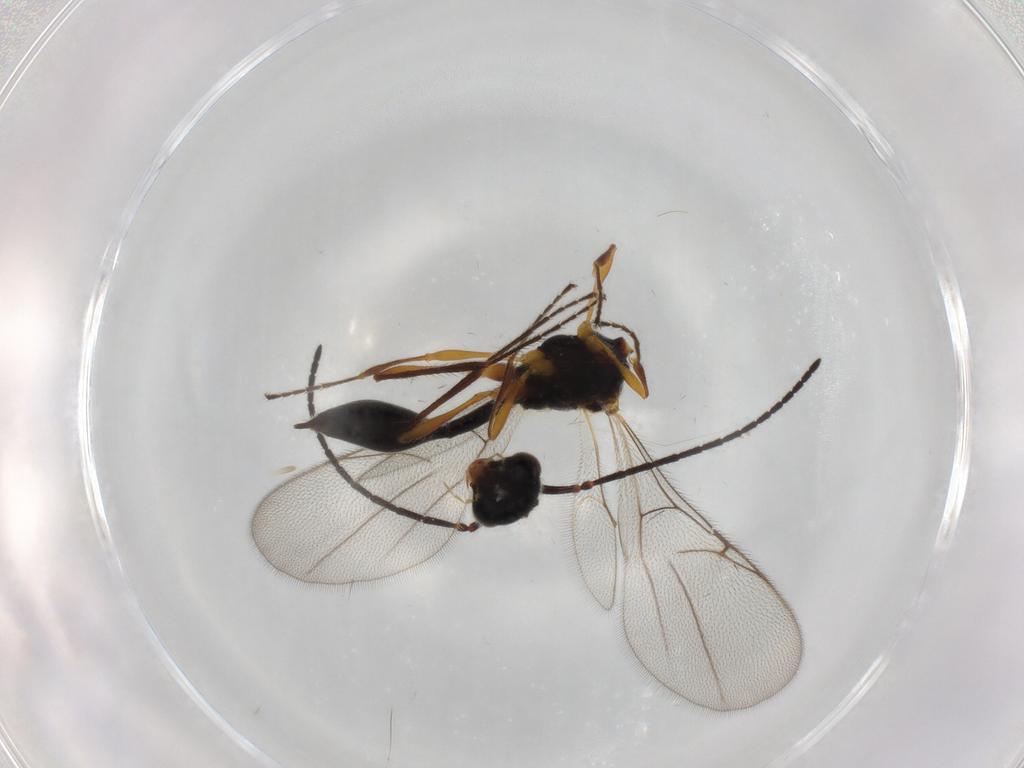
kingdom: Animalia
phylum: Arthropoda
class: Insecta
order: Hymenoptera
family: Diapriidae
